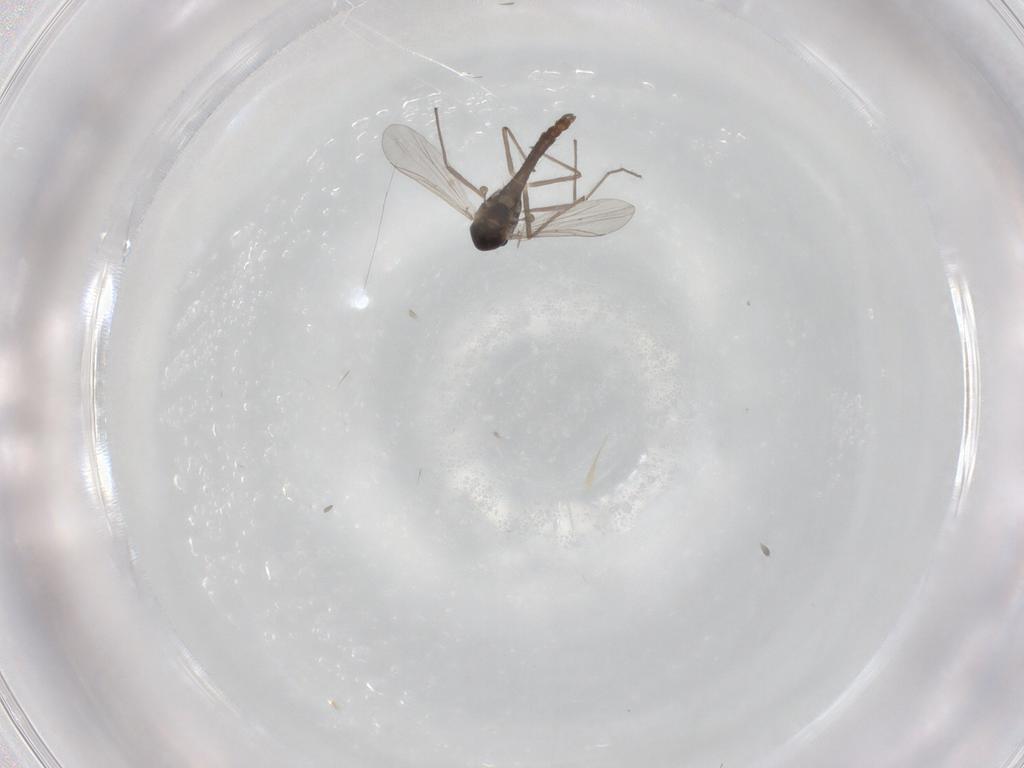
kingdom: Animalia
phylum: Arthropoda
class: Insecta
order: Diptera
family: Chironomidae
